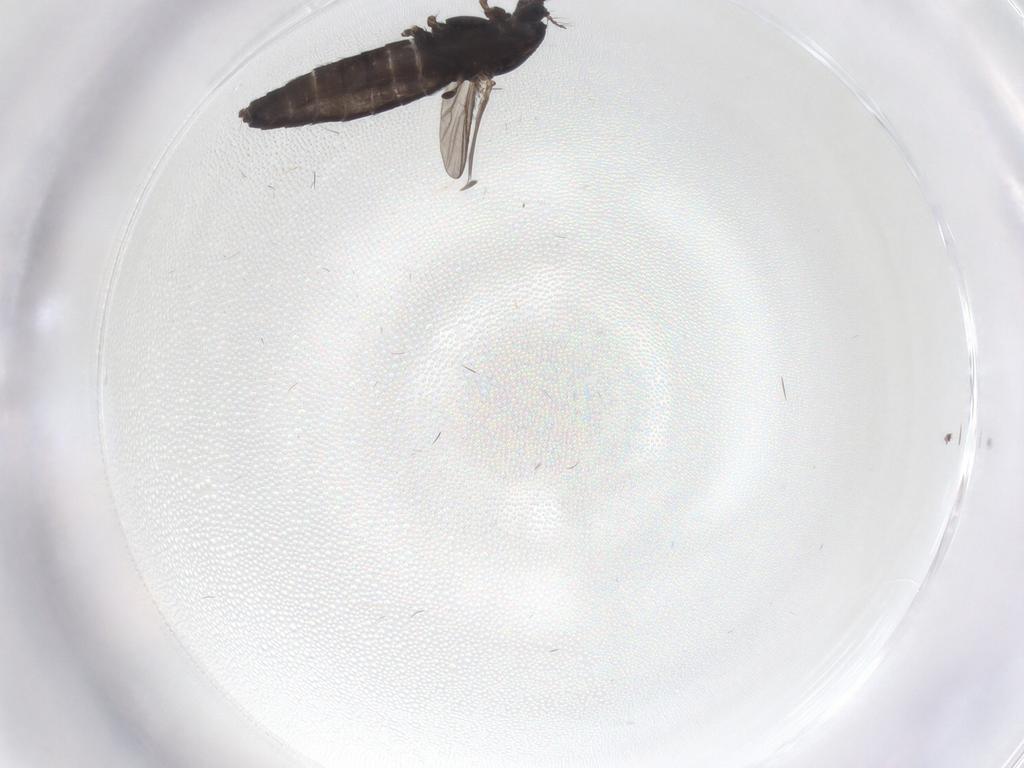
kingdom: Animalia
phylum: Arthropoda
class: Insecta
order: Diptera
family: Chironomidae
